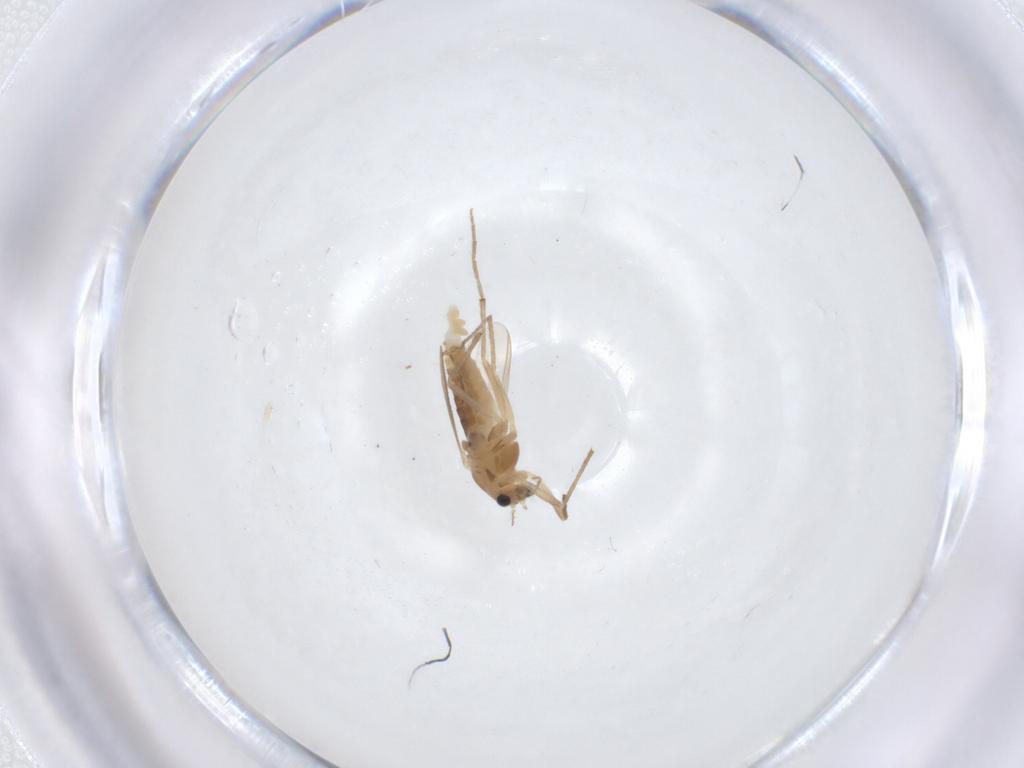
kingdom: Animalia
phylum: Arthropoda
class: Insecta
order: Diptera
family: Chironomidae
